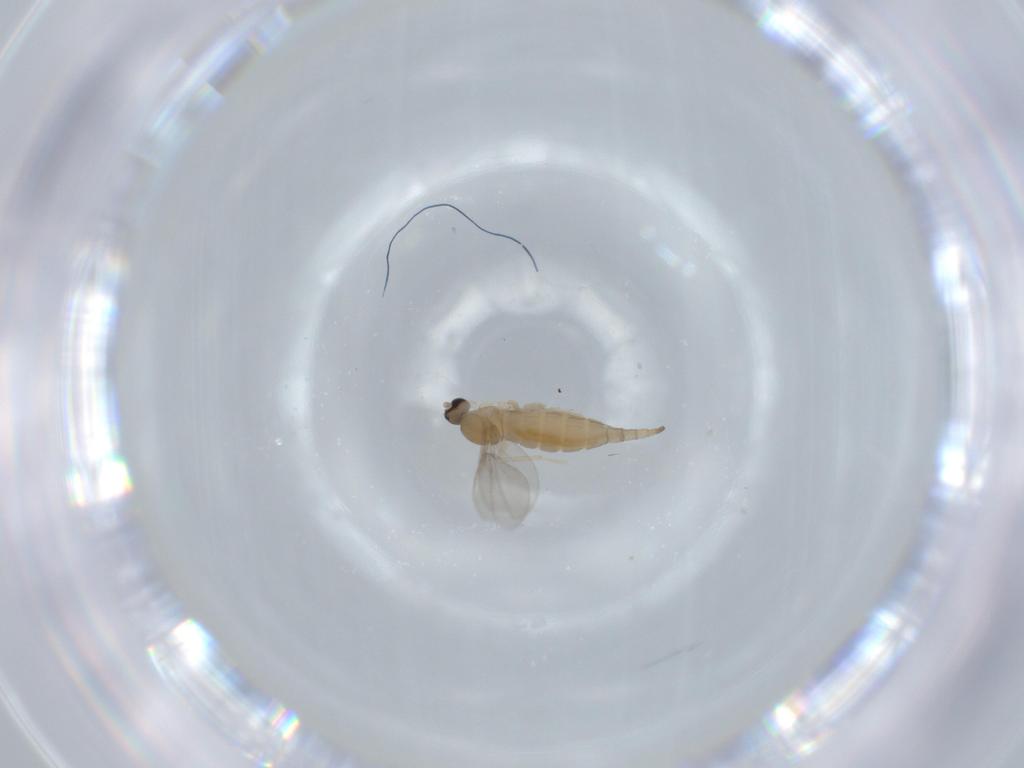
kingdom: Animalia
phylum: Arthropoda
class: Insecta
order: Diptera
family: Cecidomyiidae
